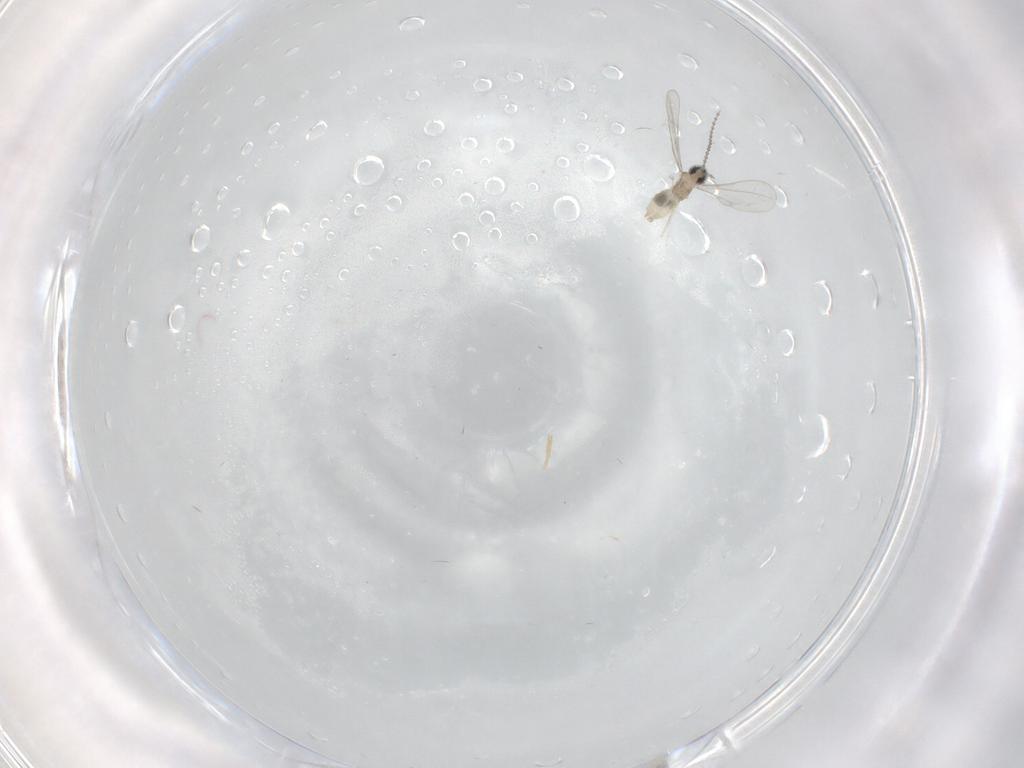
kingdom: Animalia
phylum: Arthropoda
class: Insecta
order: Diptera
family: Cecidomyiidae
